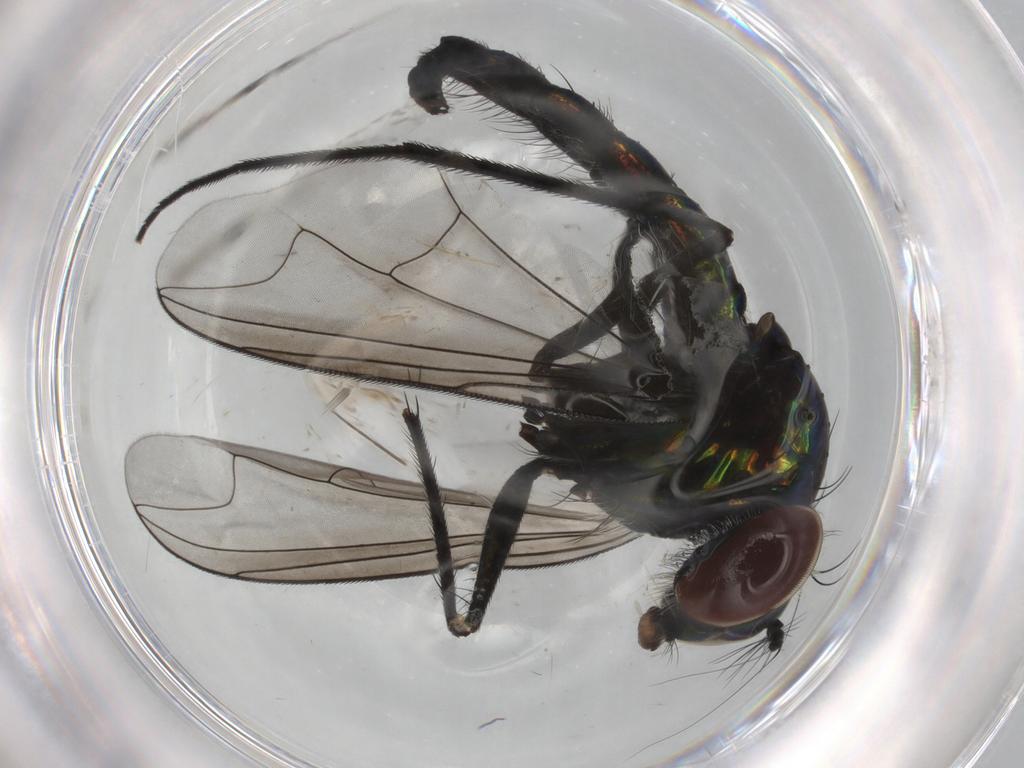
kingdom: Animalia
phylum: Arthropoda
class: Insecta
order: Diptera
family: Dolichopodidae
